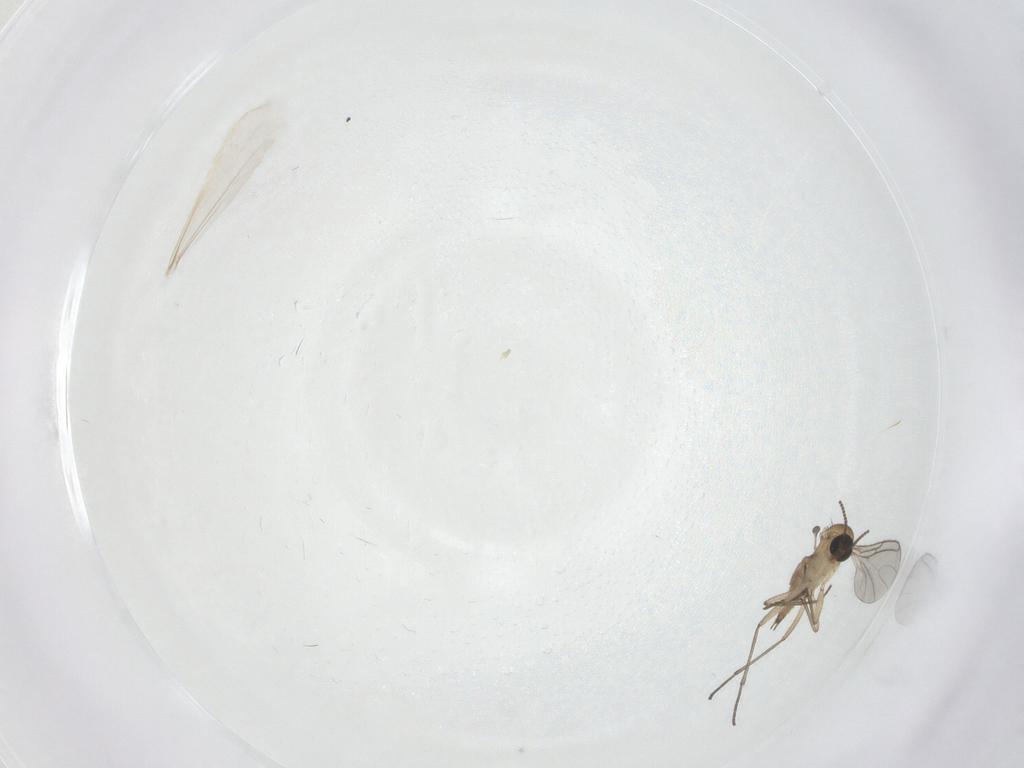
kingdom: Animalia
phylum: Arthropoda
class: Insecta
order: Diptera
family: Sciaridae
